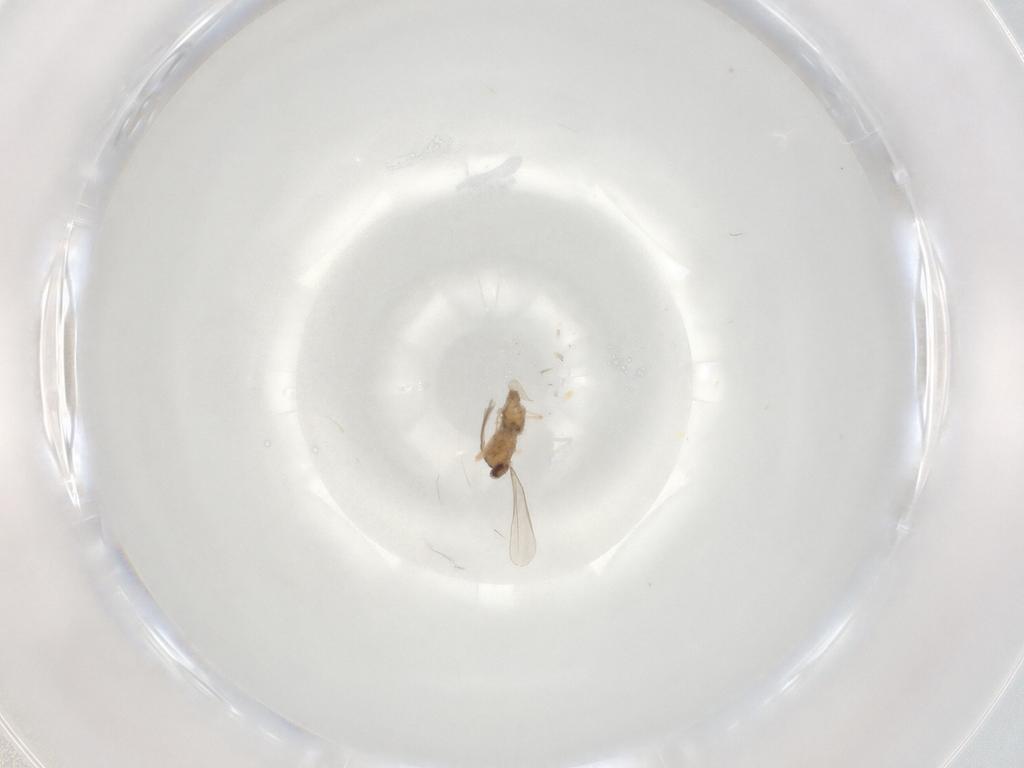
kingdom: Animalia
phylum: Arthropoda
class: Insecta
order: Diptera
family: Cecidomyiidae
